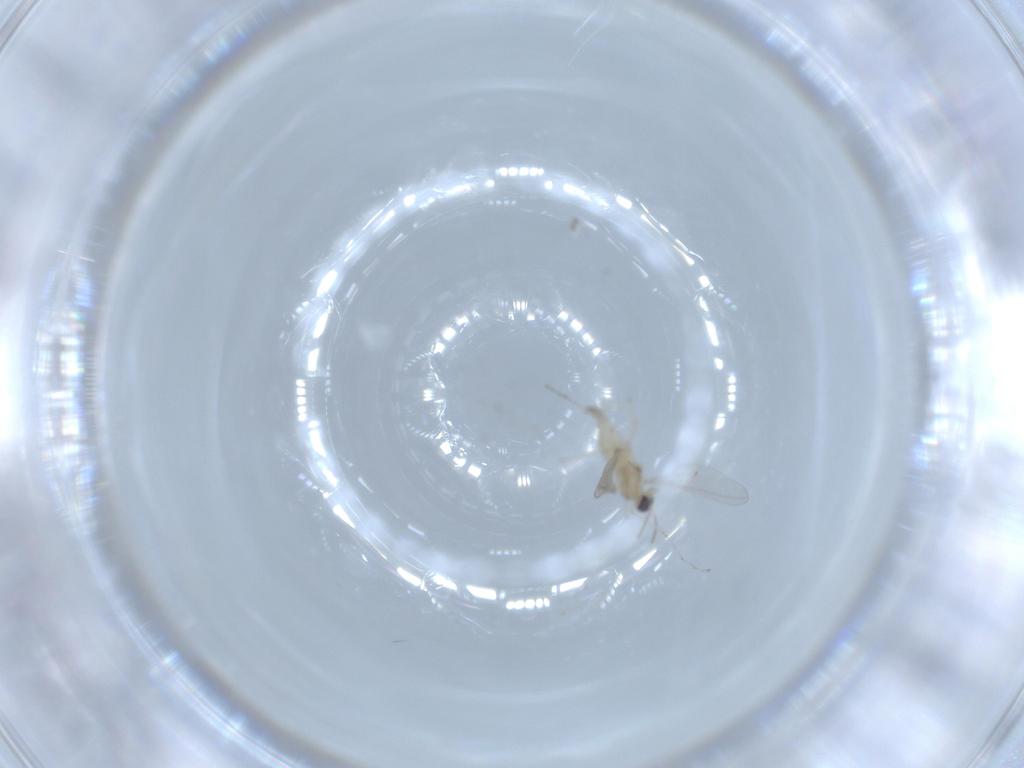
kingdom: Animalia
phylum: Arthropoda
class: Insecta
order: Diptera
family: Cecidomyiidae
